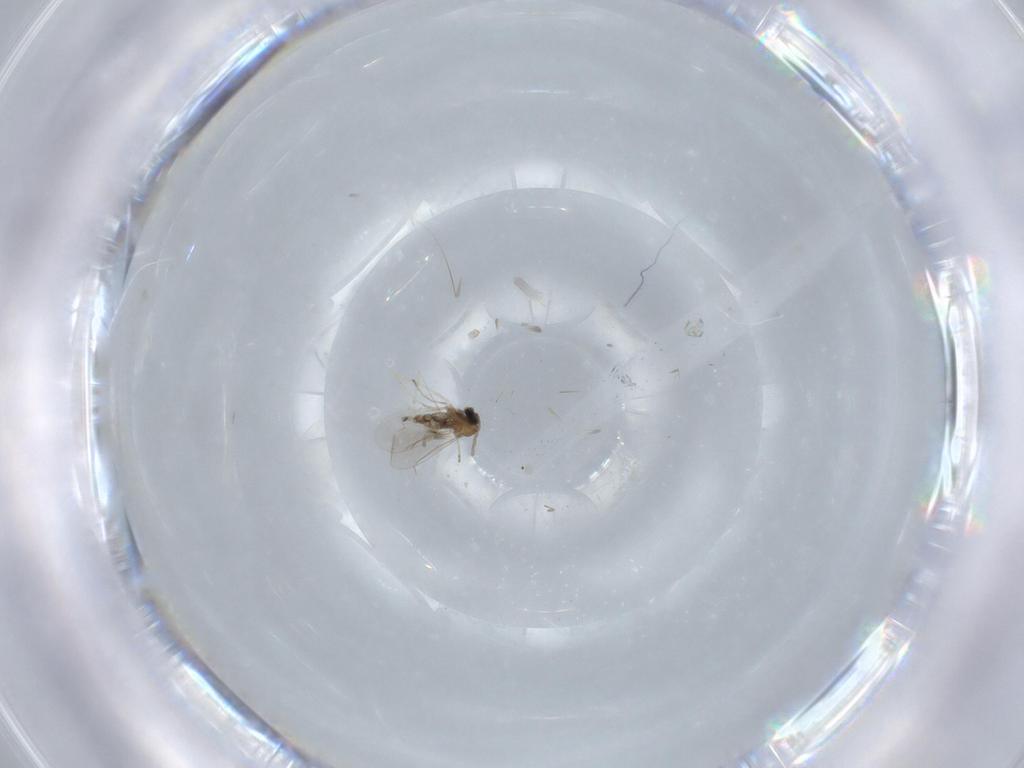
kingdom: Animalia
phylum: Arthropoda
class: Insecta
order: Diptera
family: Cecidomyiidae
